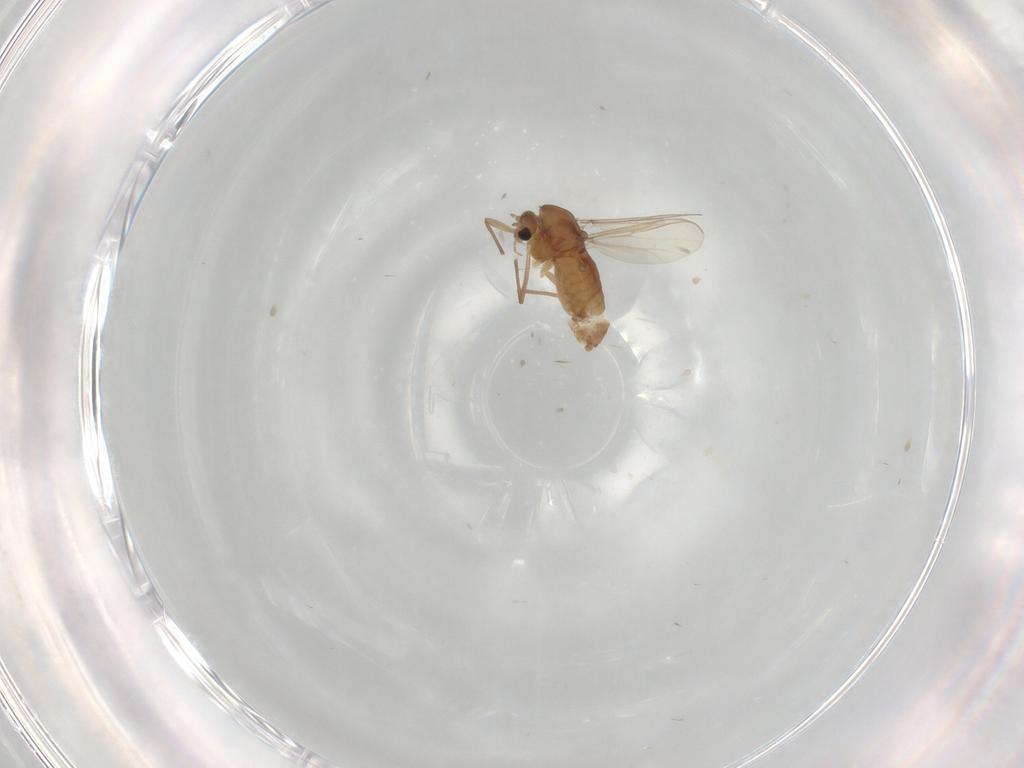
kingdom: Animalia
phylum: Arthropoda
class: Insecta
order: Diptera
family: Chironomidae
